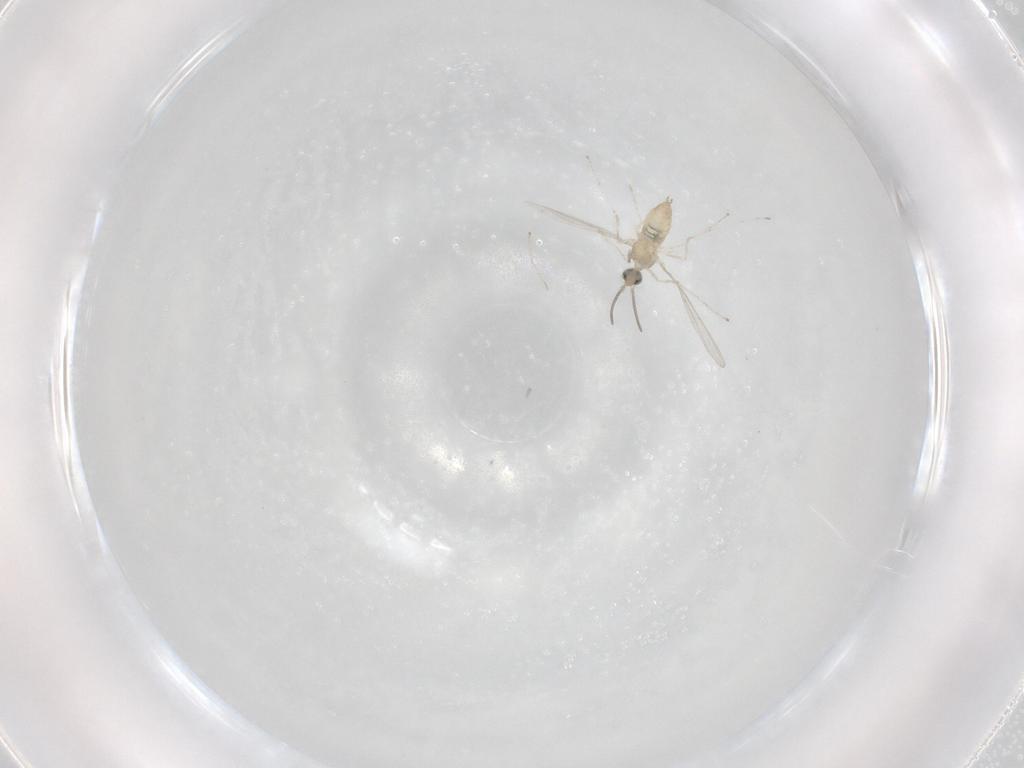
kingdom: Animalia
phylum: Arthropoda
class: Insecta
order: Diptera
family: Cecidomyiidae
